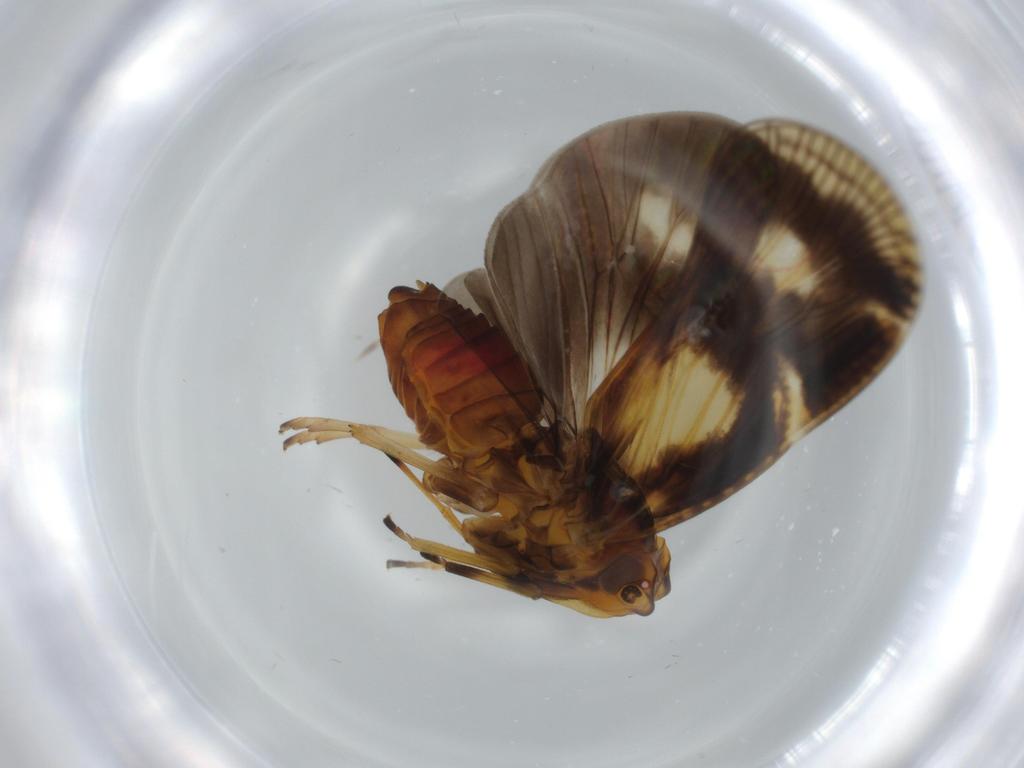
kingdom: Animalia
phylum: Arthropoda
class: Insecta
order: Hemiptera
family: Cixiidae
